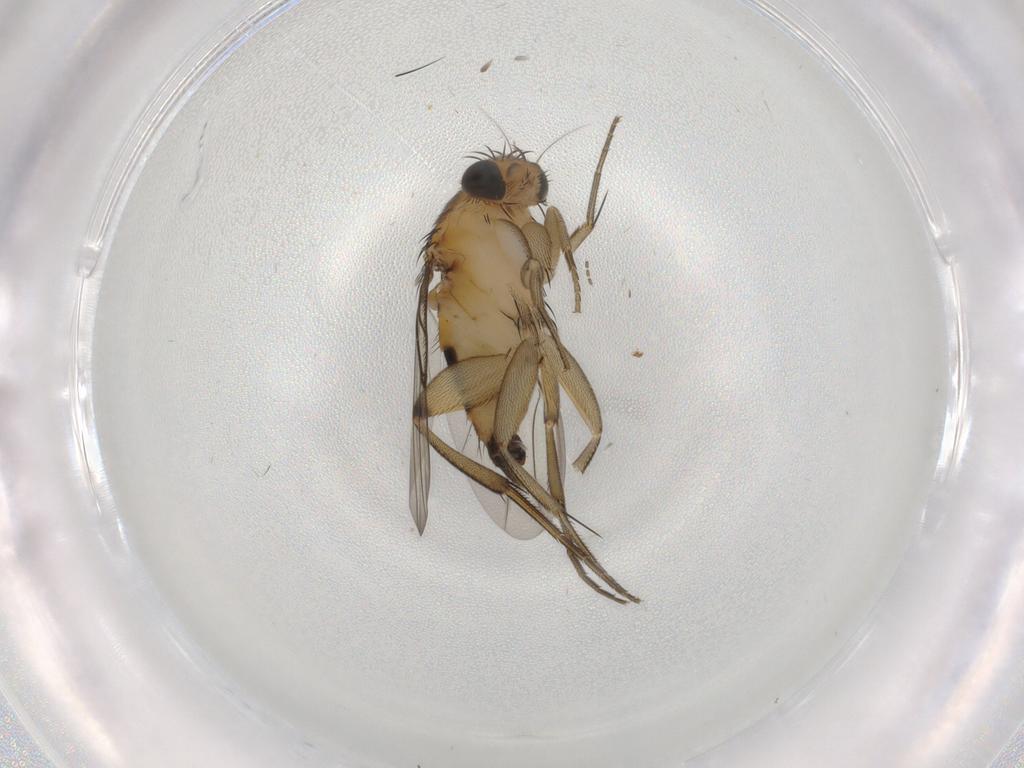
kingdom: Animalia
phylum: Arthropoda
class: Insecta
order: Diptera
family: Phoridae
